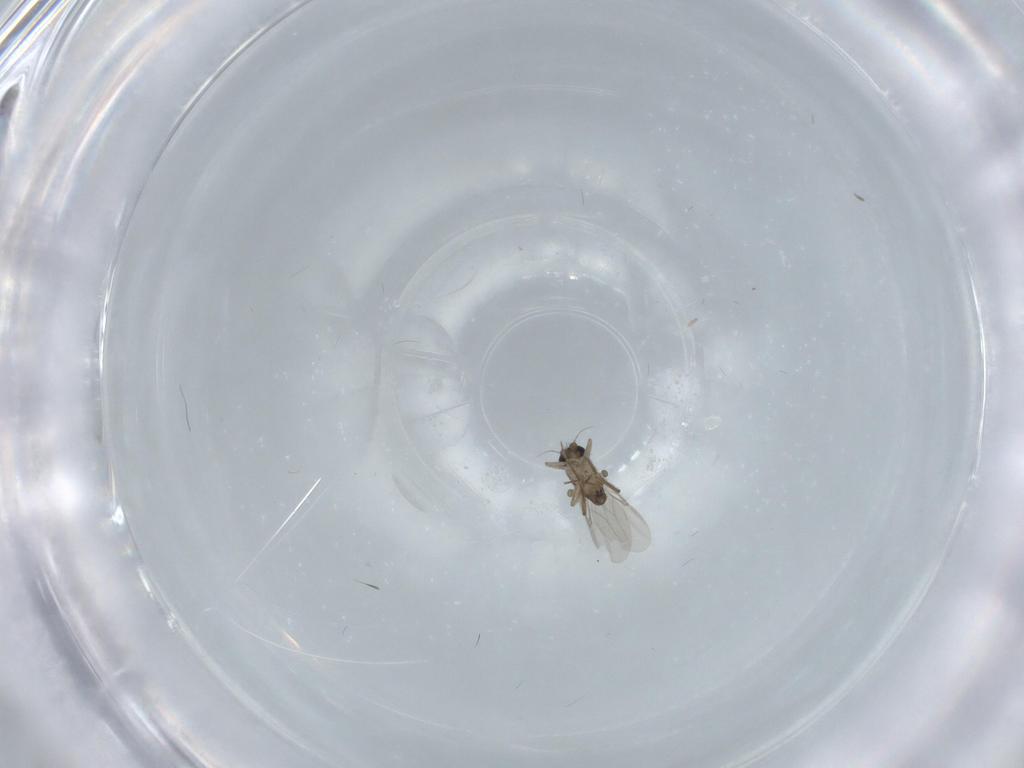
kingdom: Animalia
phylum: Arthropoda
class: Insecta
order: Diptera
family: Phoridae
